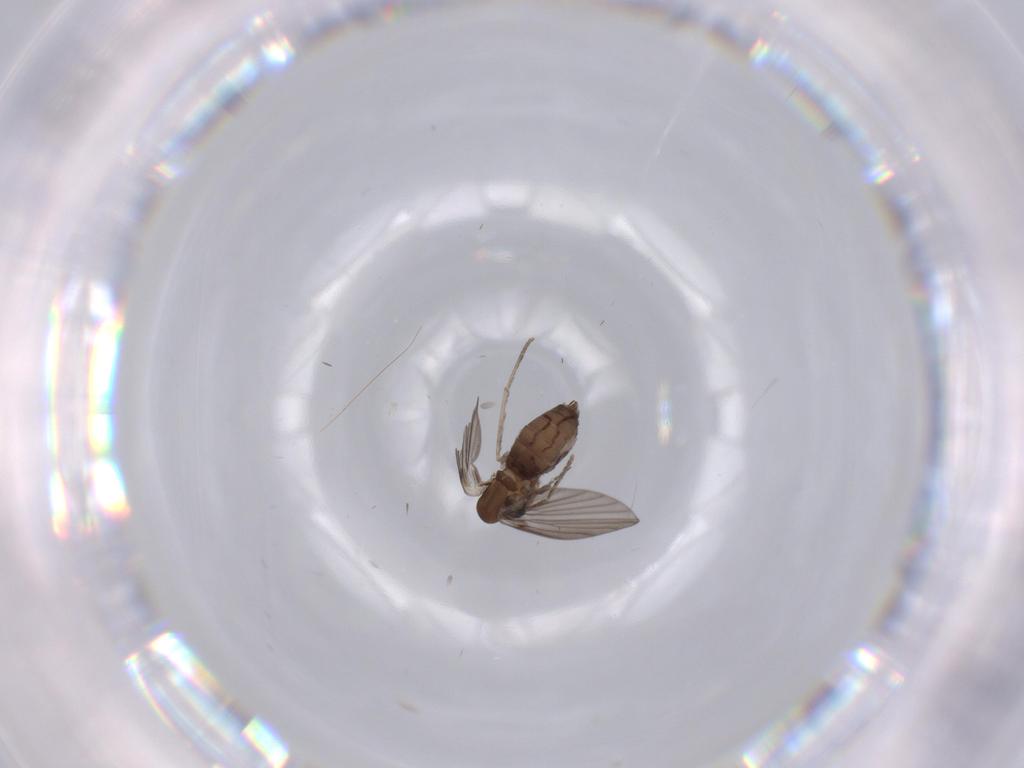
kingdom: Animalia
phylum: Arthropoda
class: Insecta
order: Diptera
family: Psychodidae
